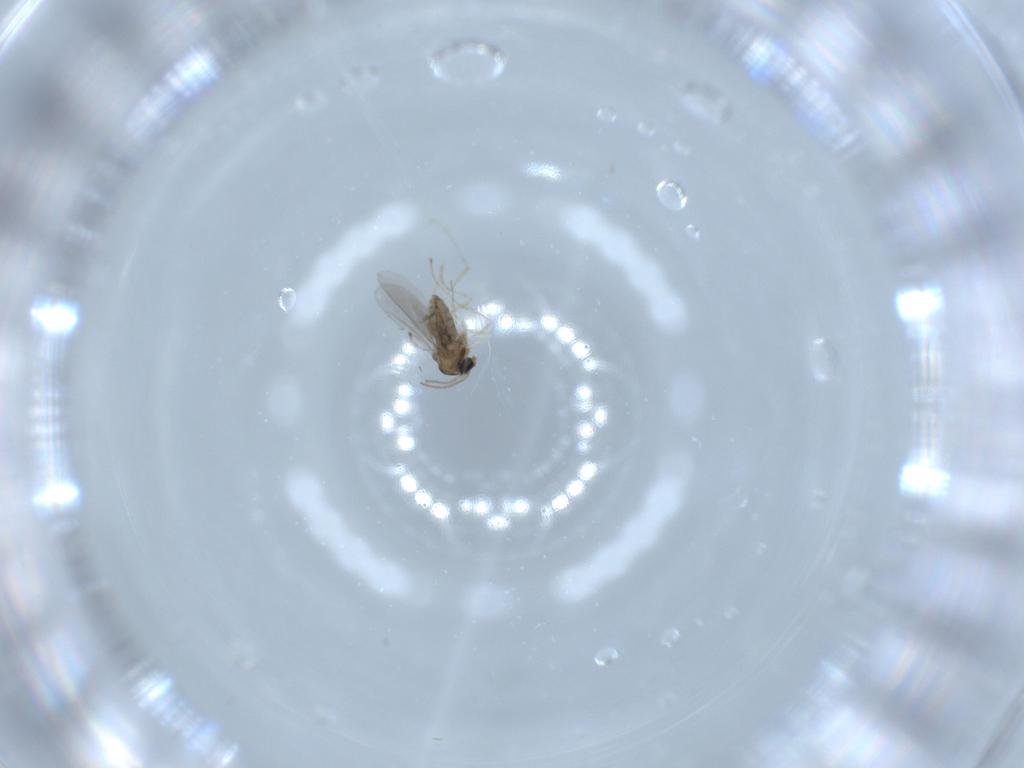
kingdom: Animalia
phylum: Arthropoda
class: Insecta
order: Diptera
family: Cecidomyiidae
